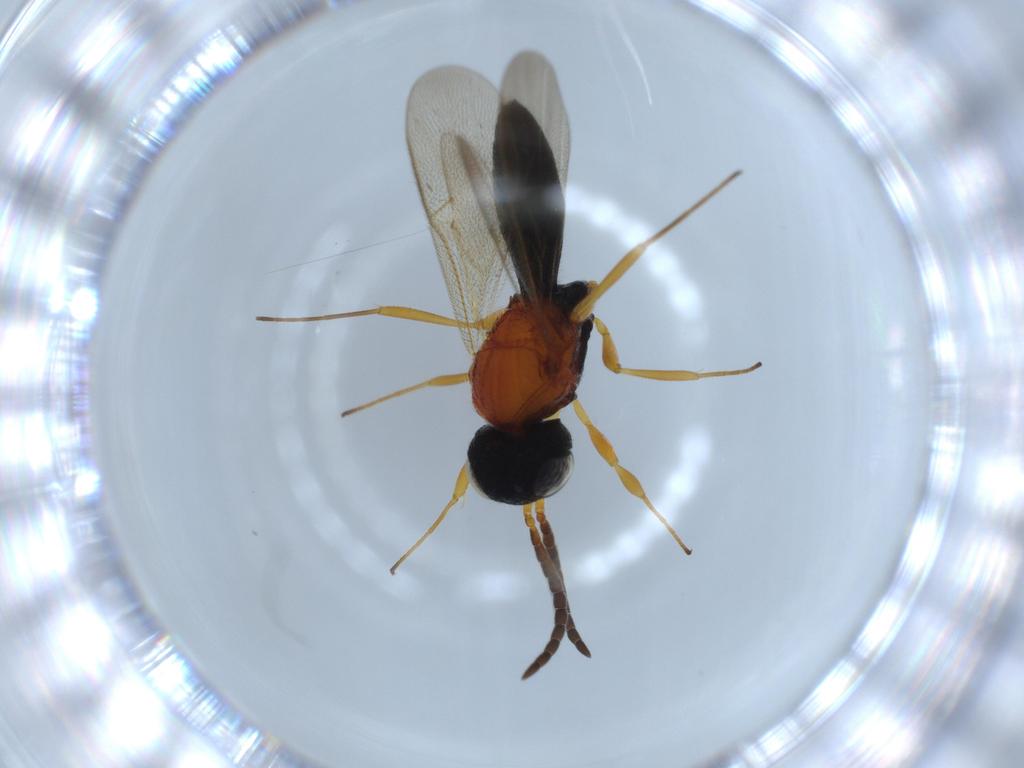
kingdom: Animalia
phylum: Arthropoda
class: Insecta
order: Hymenoptera
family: Scelionidae
